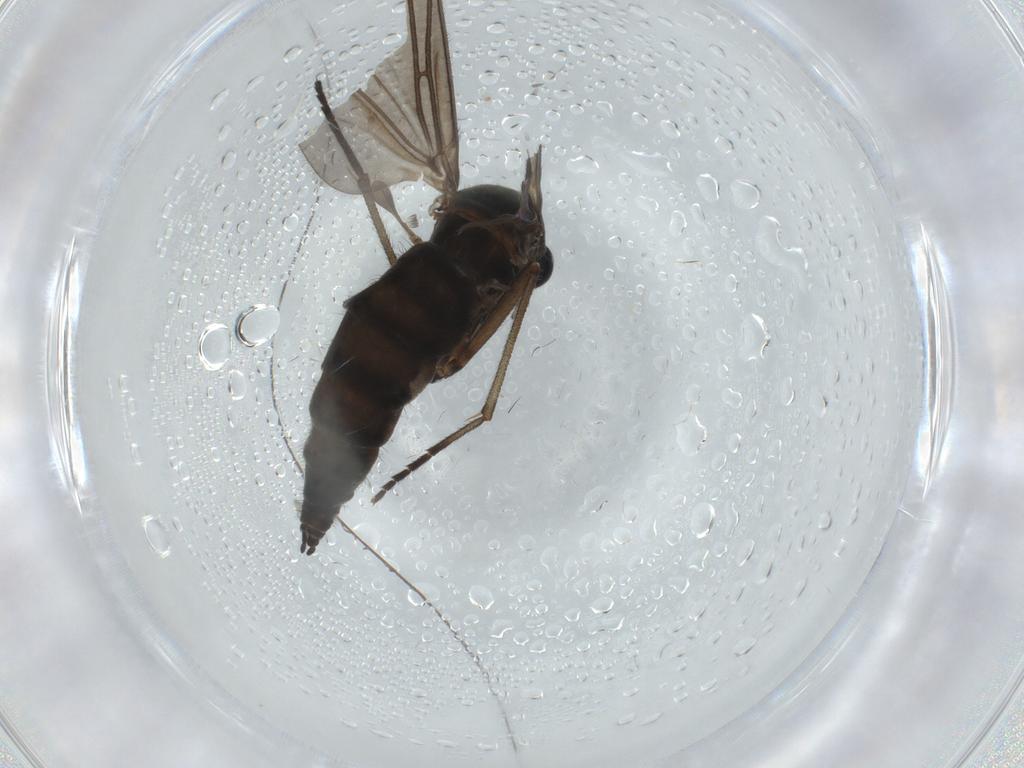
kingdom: Animalia
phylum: Arthropoda
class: Insecta
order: Diptera
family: Sciaridae
